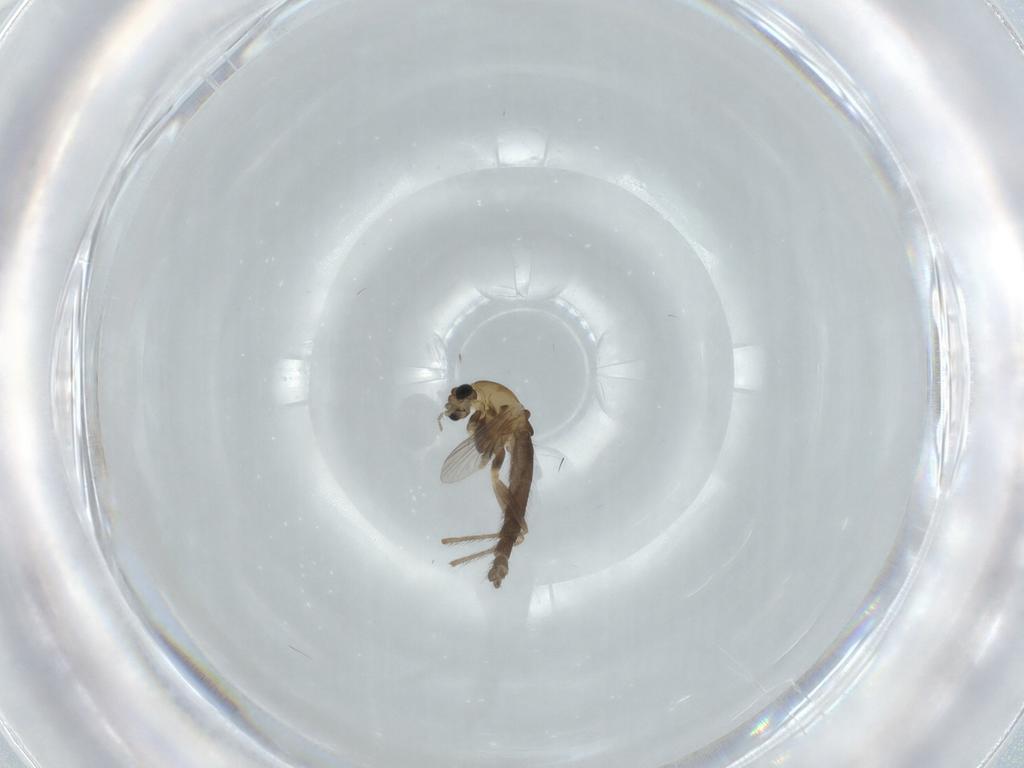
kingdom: Animalia
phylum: Arthropoda
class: Insecta
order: Diptera
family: Chironomidae
